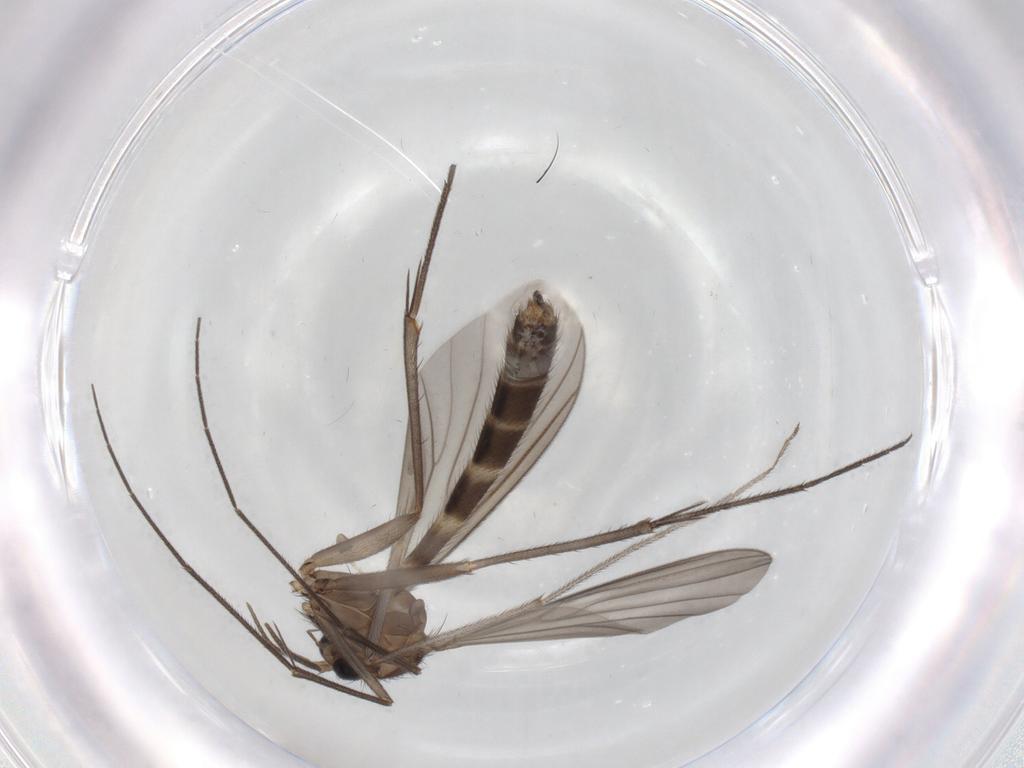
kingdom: Animalia
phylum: Arthropoda
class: Insecta
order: Diptera
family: Mycetophilidae
